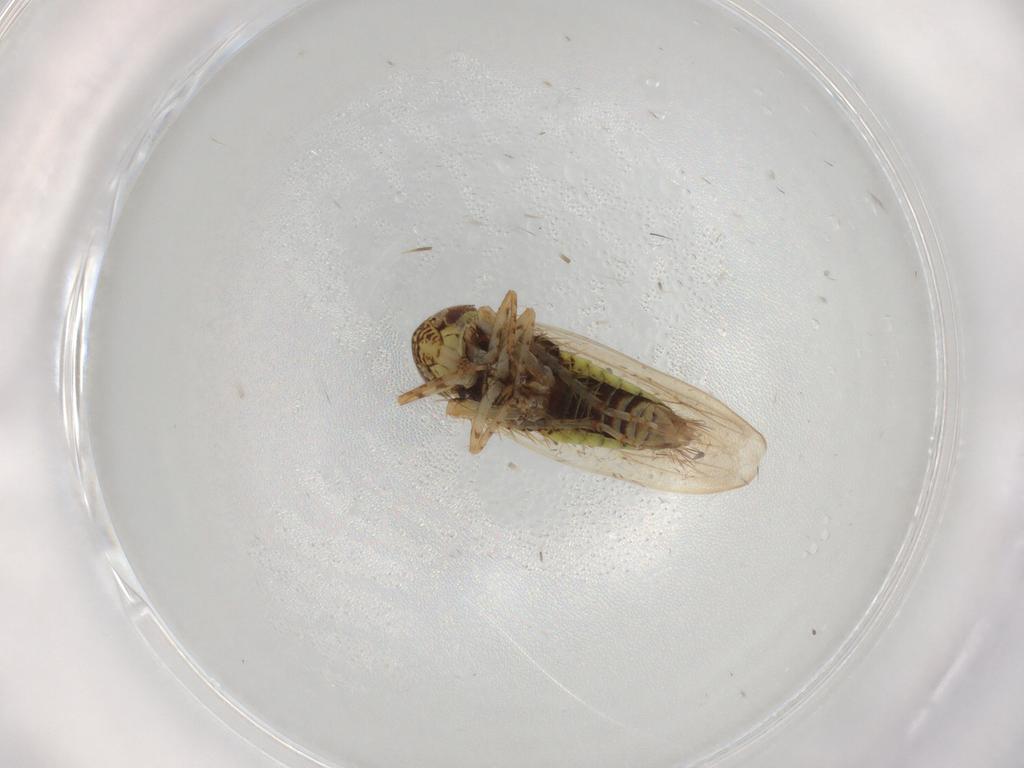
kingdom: Animalia
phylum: Arthropoda
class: Insecta
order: Hemiptera
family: Cicadellidae
